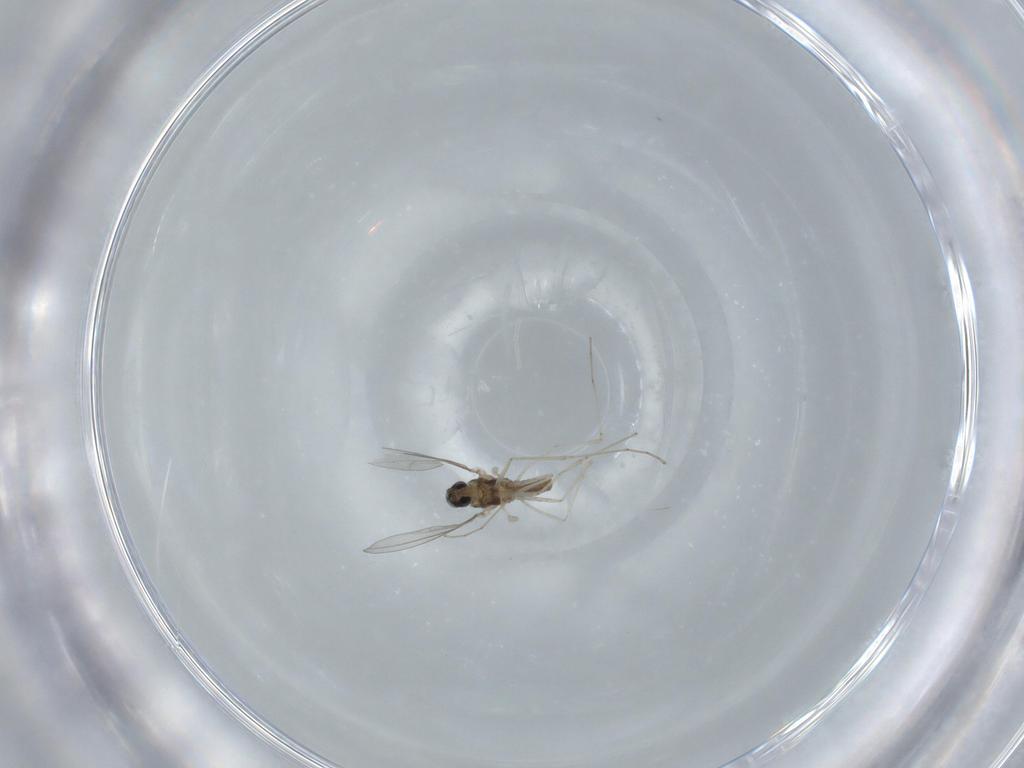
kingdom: Animalia
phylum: Arthropoda
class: Insecta
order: Diptera
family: Cecidomyiidae
